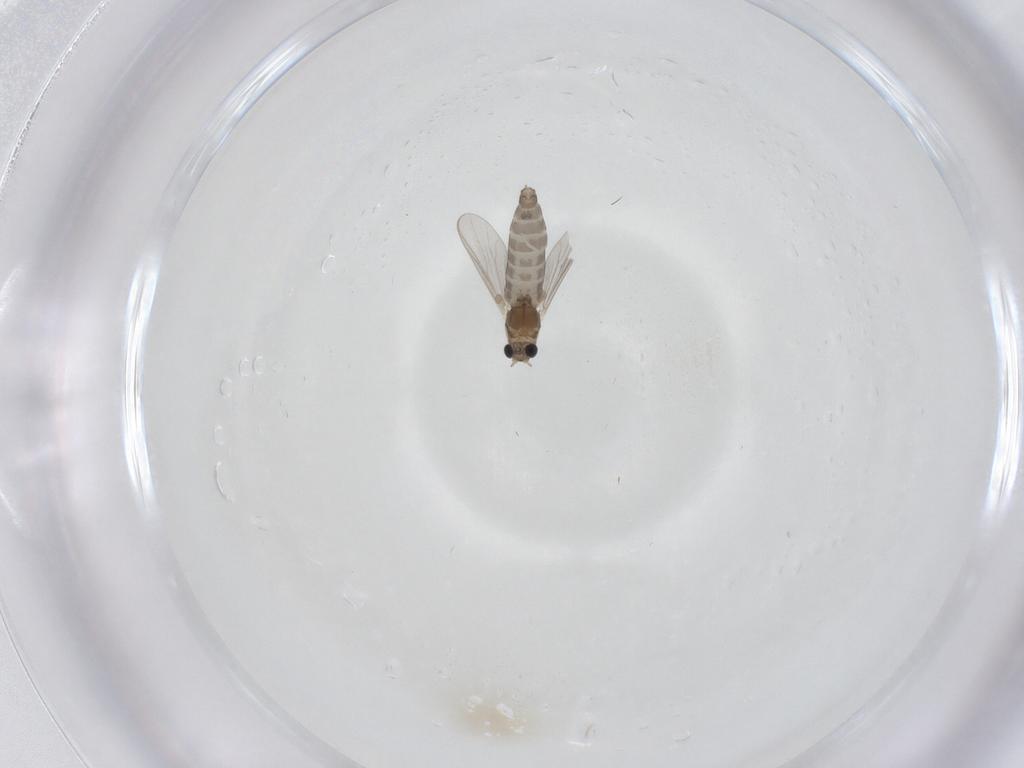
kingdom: Animalia
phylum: Arthropoda
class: Insecta
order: Diptera
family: Chironomidae
